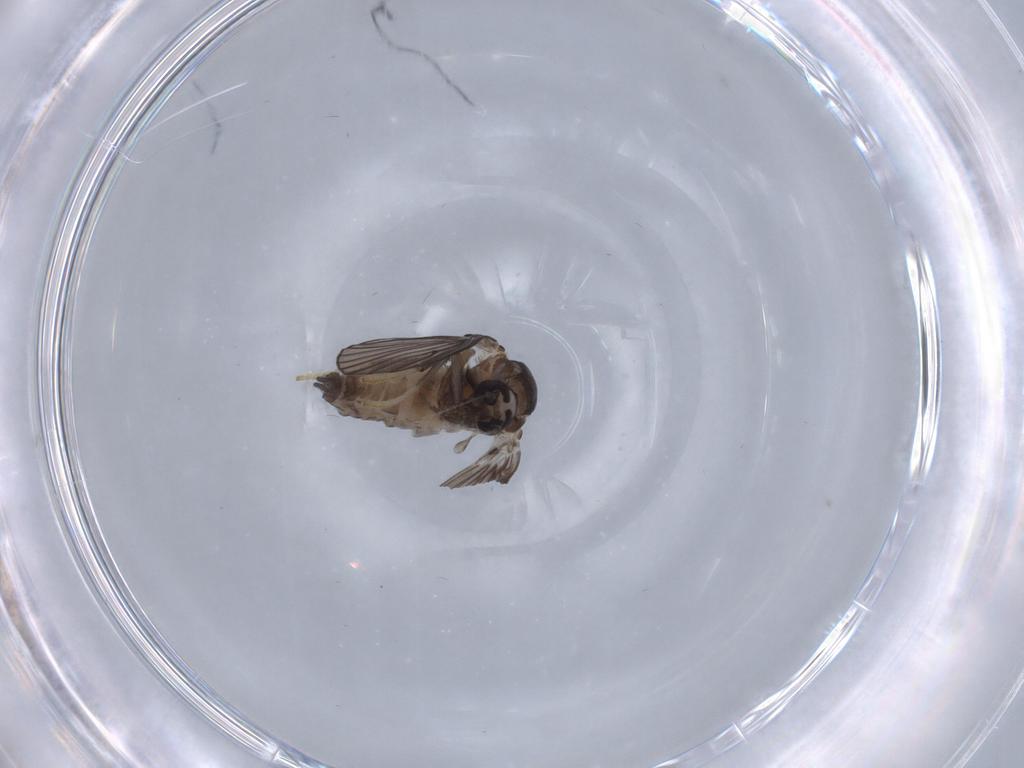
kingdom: Animalia
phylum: Arthropoda
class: Insecta
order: Diptera
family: Psychodidae
